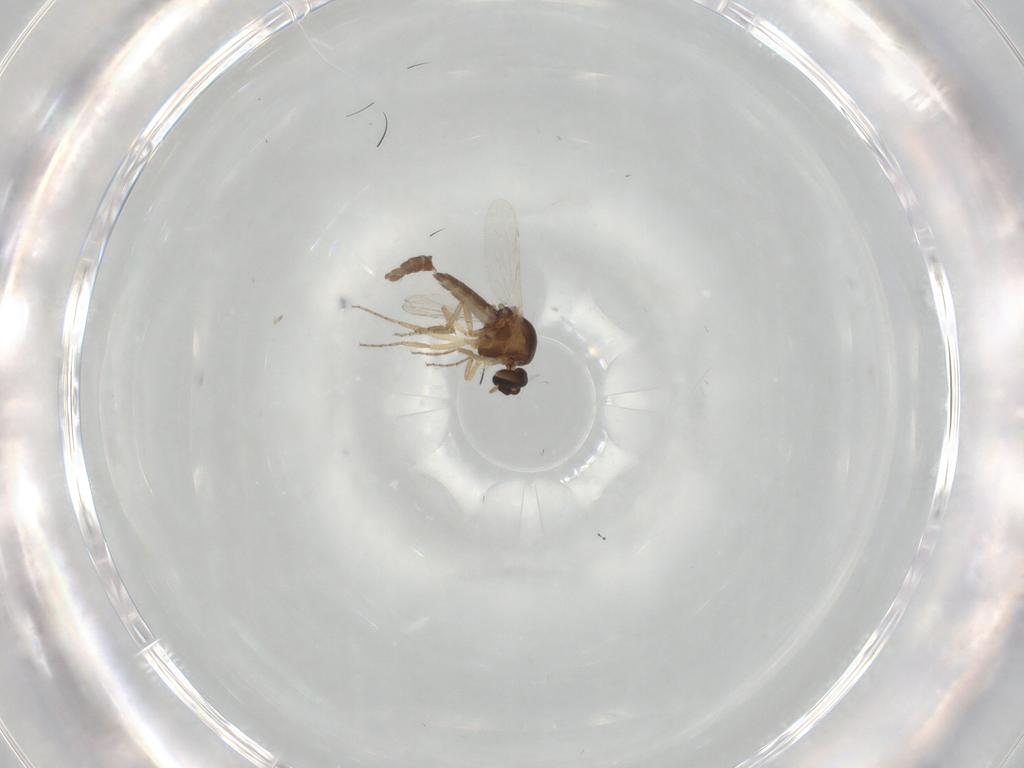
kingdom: Animalia
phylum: Arthropoda
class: Insecta
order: Diptera
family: Ceratopogonidae
